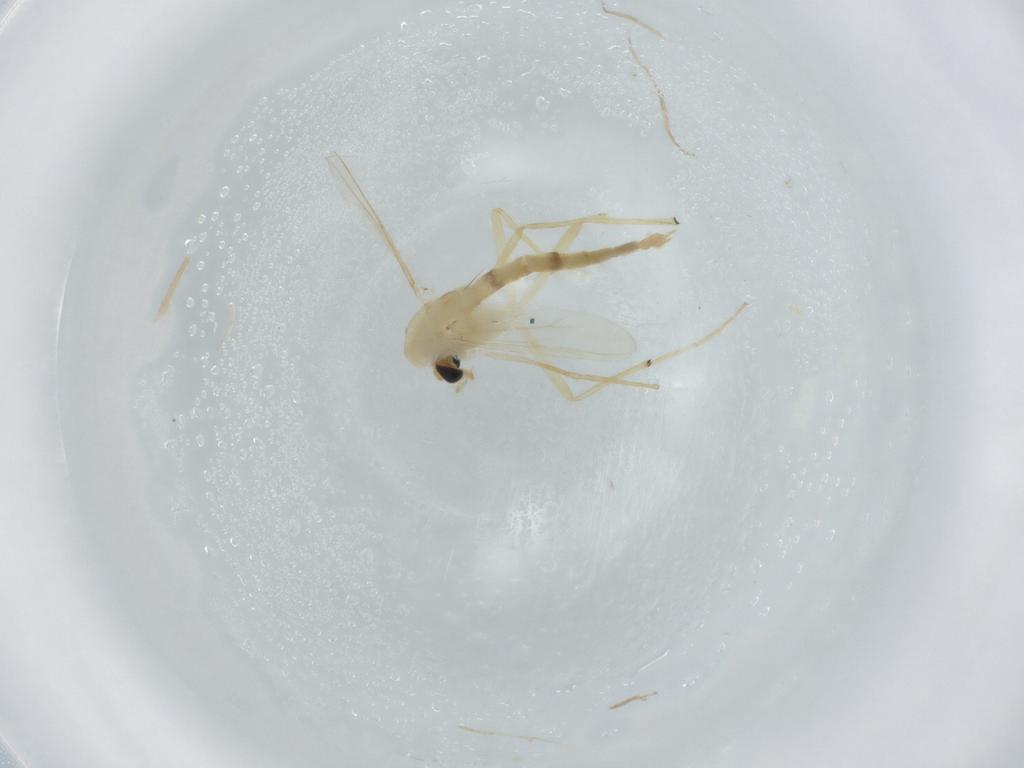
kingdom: Animalia
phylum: Arthropoda
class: Insecta
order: Diptera
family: Chironomidae
